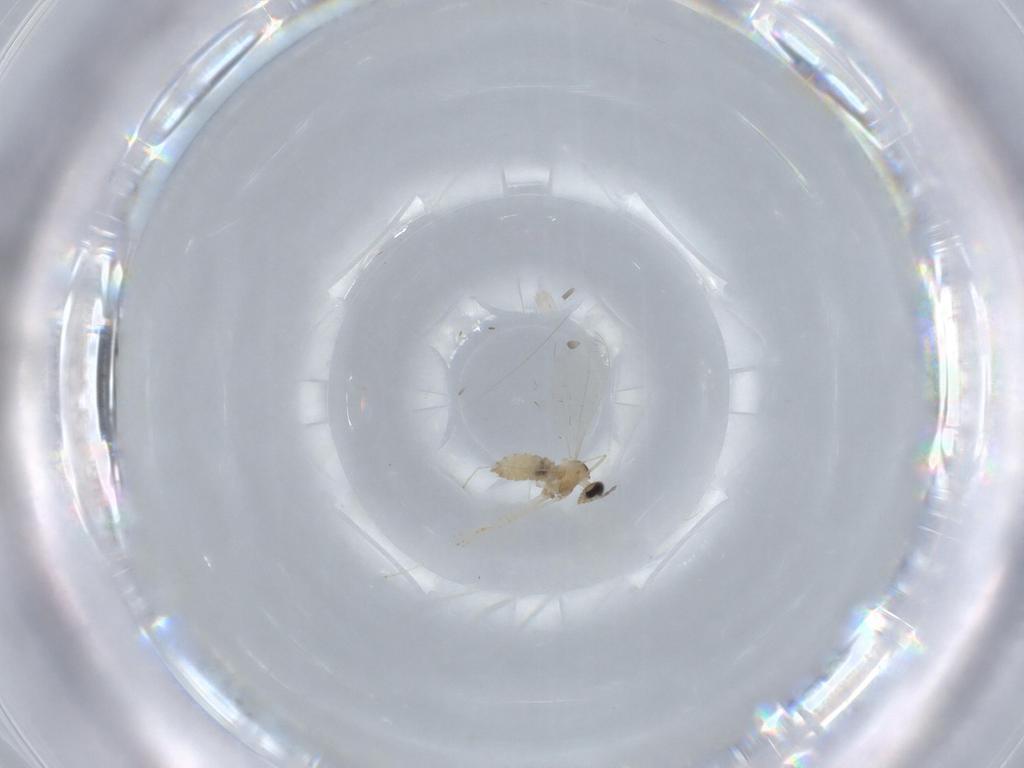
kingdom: Animalia
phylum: Arthropoda
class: Insecta
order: Diptera
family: Cecidomyiidae
